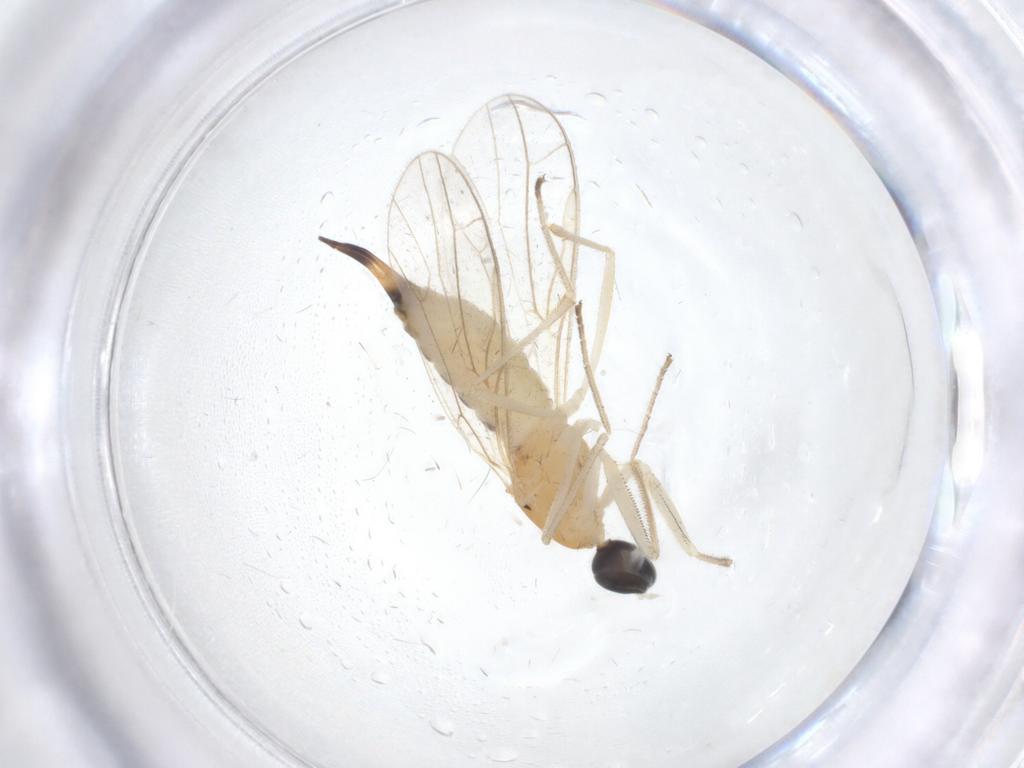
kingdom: Animalia
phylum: Arthropoda
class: Insecta
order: Diptera
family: Empididae
